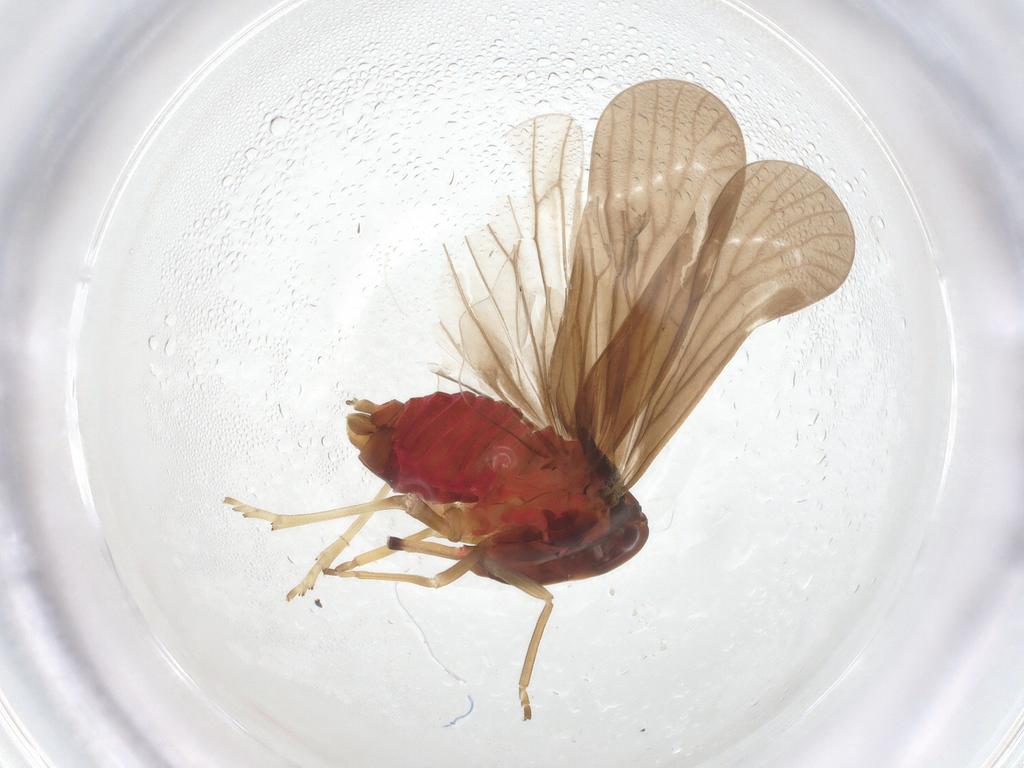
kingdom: Animalia
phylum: Arthropoda
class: Insecta
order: Hemiptera
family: Derbidae
